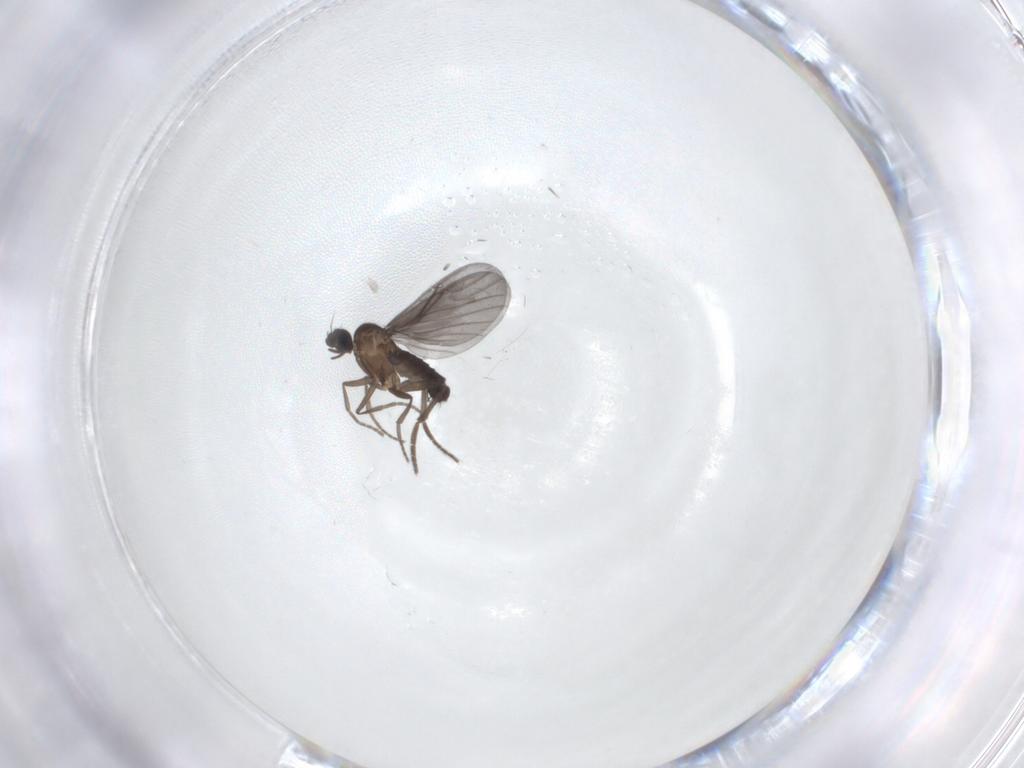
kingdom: Animalia
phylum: Arthropoda
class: Insecta
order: Diptera
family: Phoridae
